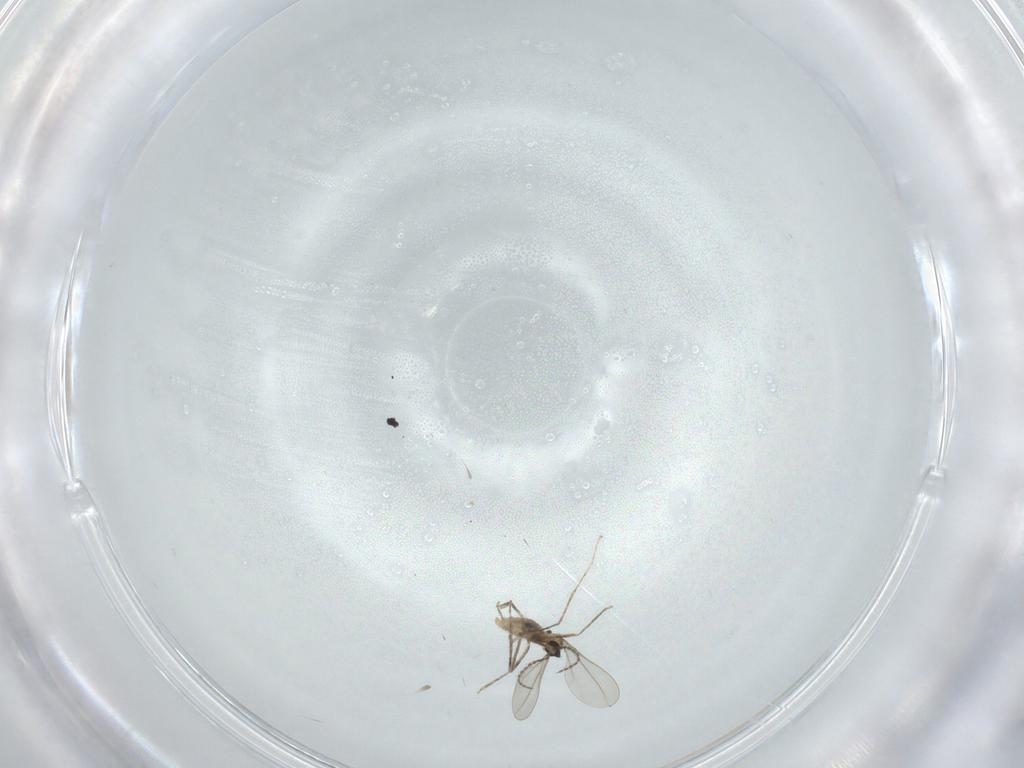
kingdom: Animalia
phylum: Arthropoda
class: Insecta
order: Diptera
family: Cecidomyiidae
